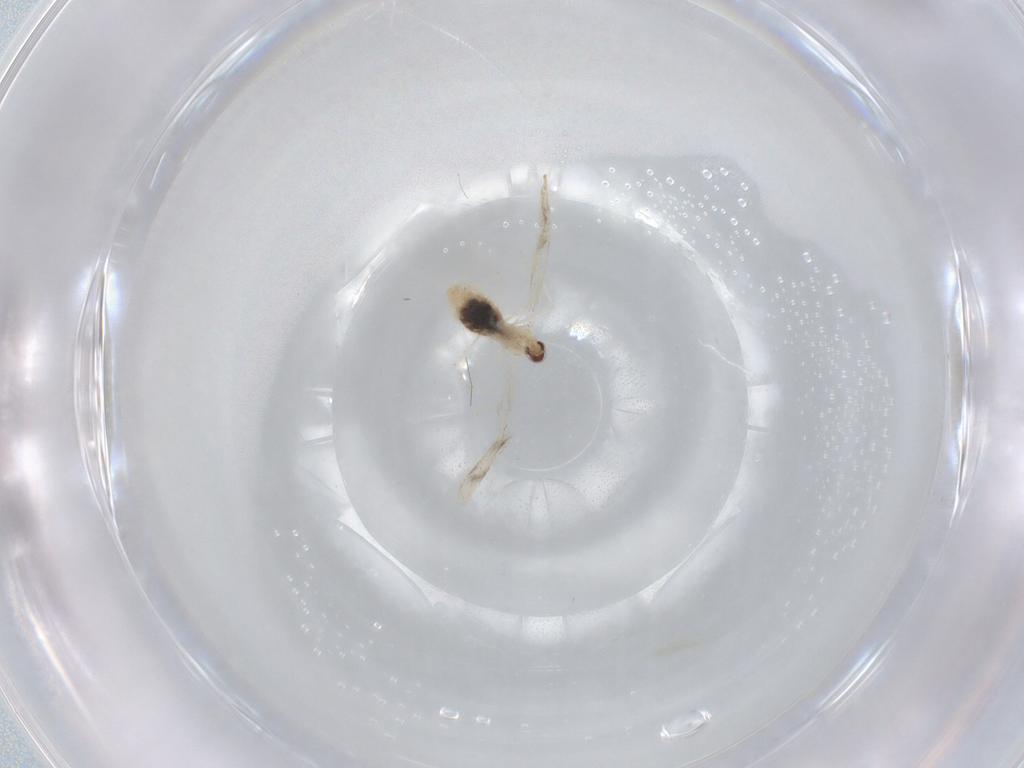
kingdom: Animalia
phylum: Arthropoda
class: Insecta
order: Diptera
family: Cecidomyiidae
